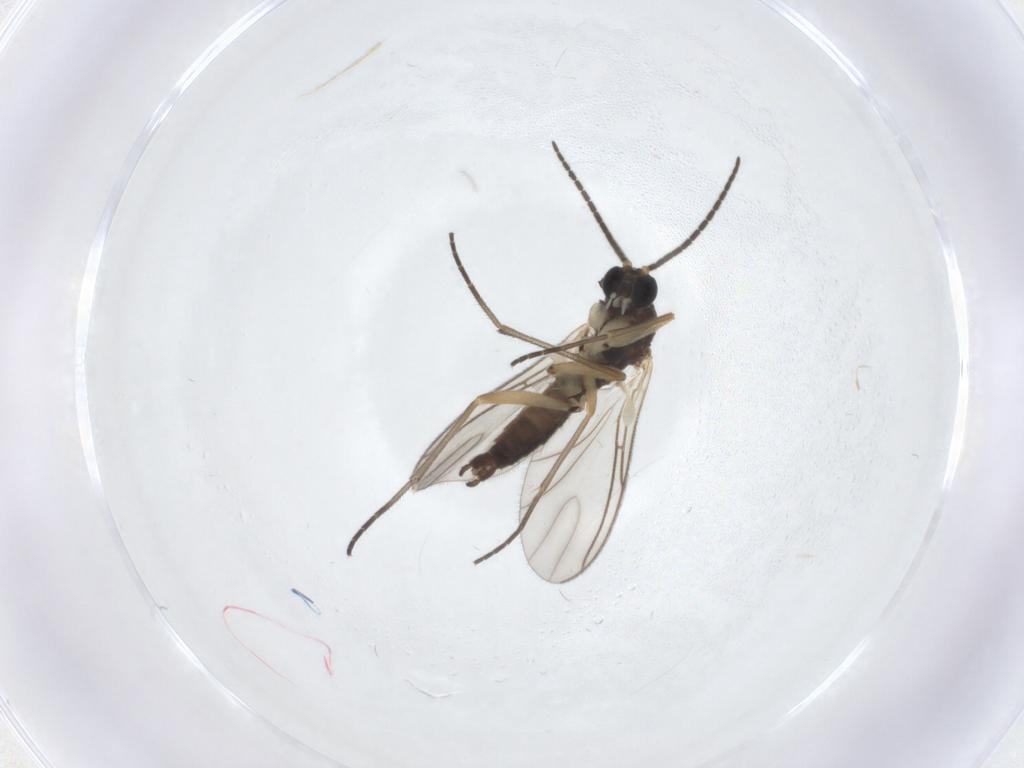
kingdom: Animalia
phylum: Arthropoda
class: Insecta
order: Diptera
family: Sciaridae
